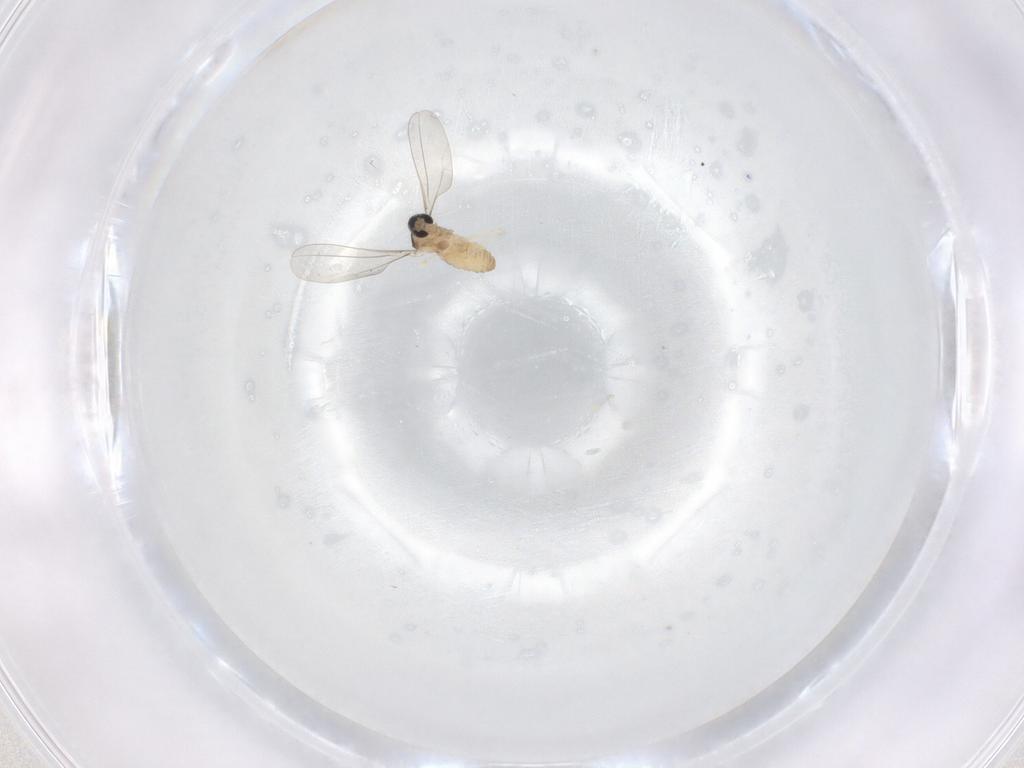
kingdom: Animalia
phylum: Arthropoda
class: Insecta
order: Diptera
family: Cecidomyiidae
